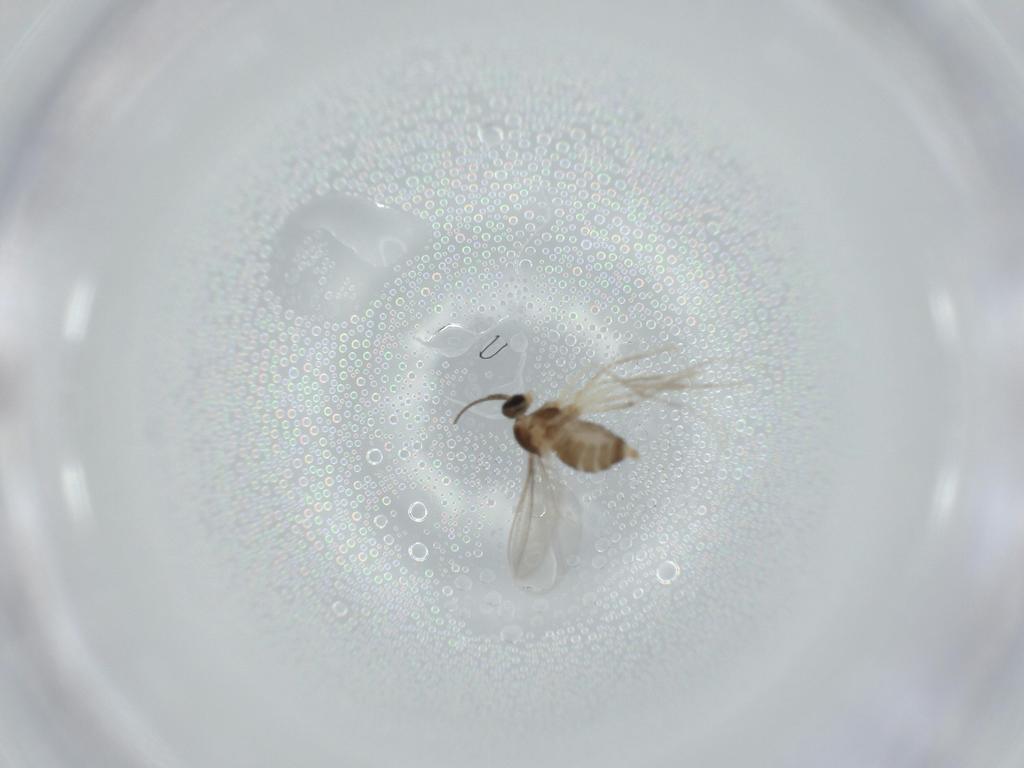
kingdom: Animalia
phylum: Arthropoda
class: Insecta
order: Diptera
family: Cecidomyiidae
